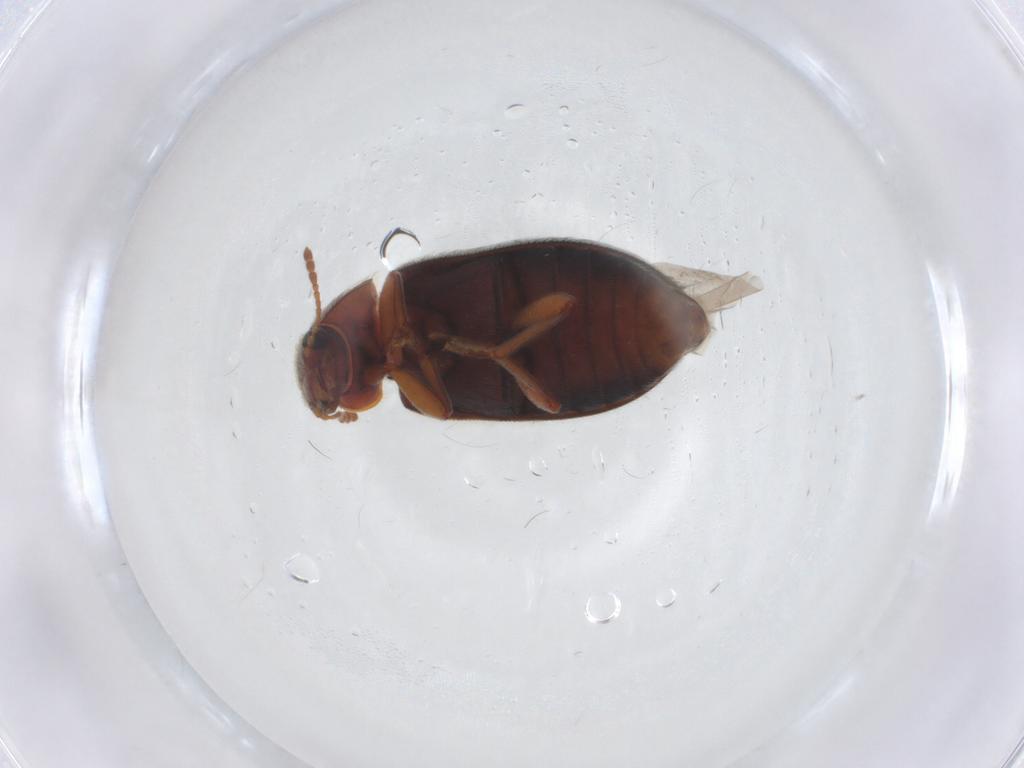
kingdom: Animalia
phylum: Arthropoda
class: Insecta
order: Coleoptera
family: Byturidae
